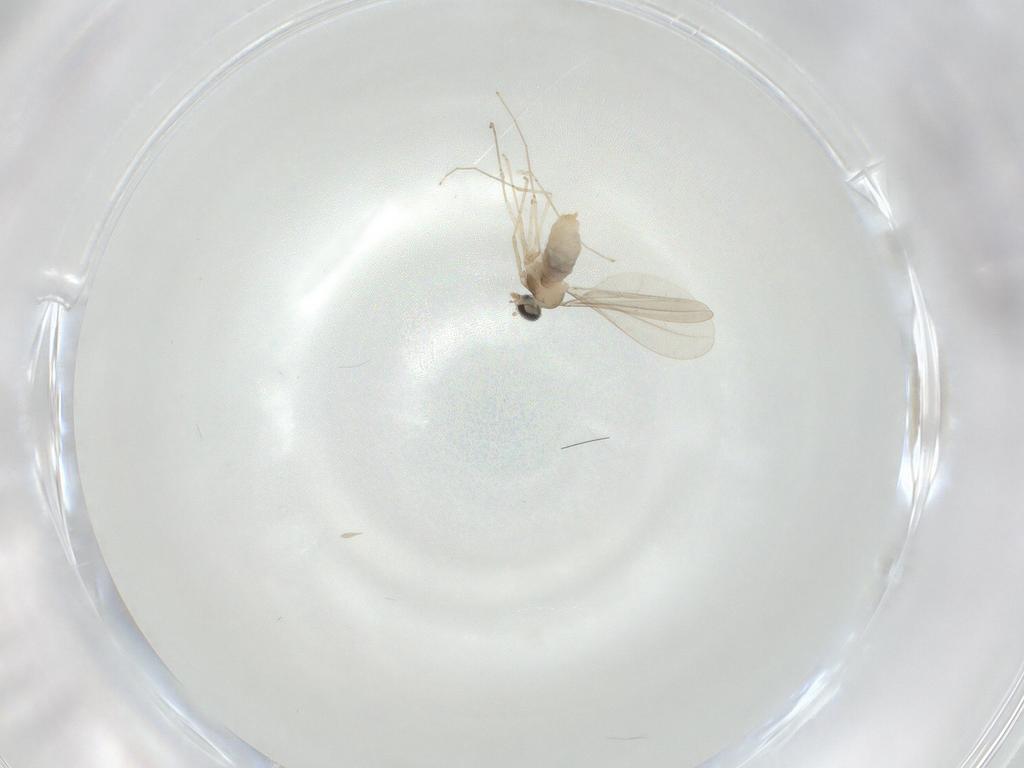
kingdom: Animalia
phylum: Arthropoda
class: Insecta
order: Diptera
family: Cecidomyiidae
